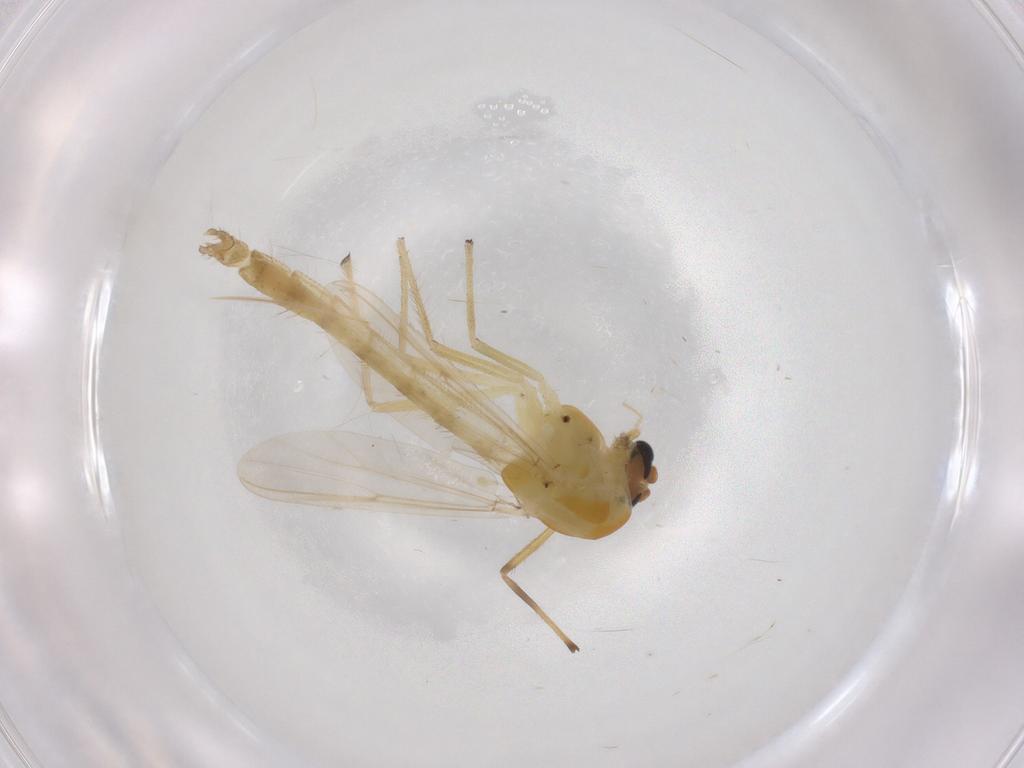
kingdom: Animalia
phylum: Arthropoda
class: Insecta
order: Diptera
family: Chironomidae
